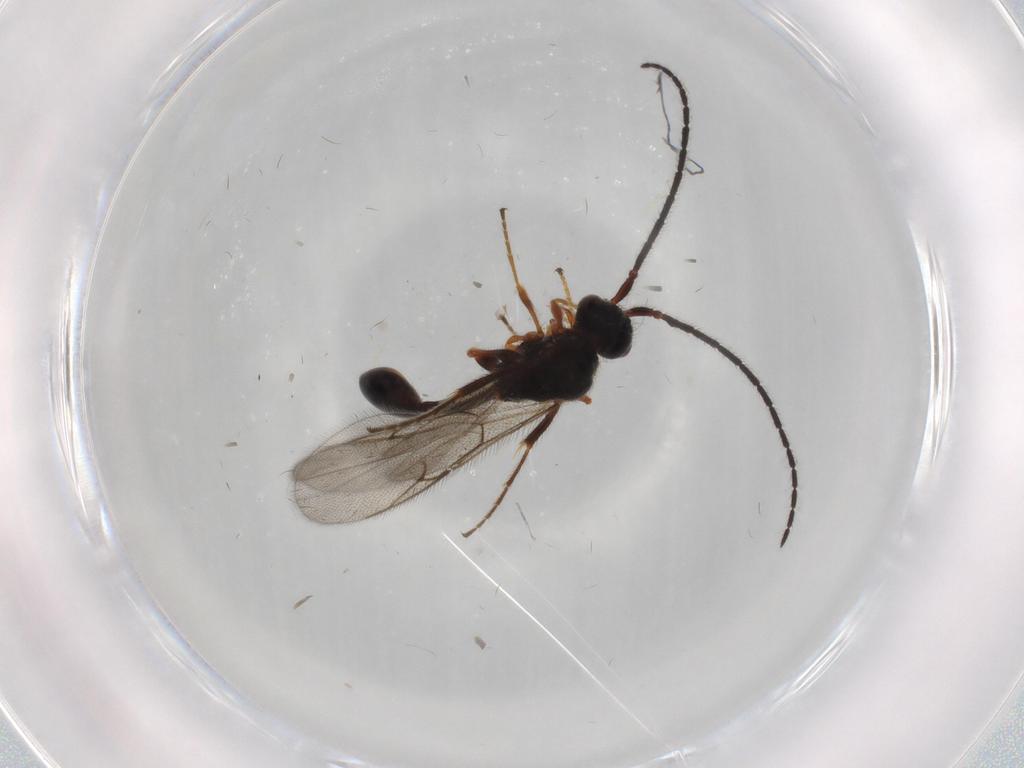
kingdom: Animalia
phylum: Arthropoda
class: Insecta
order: Hymenoptera
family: Diapriidae
